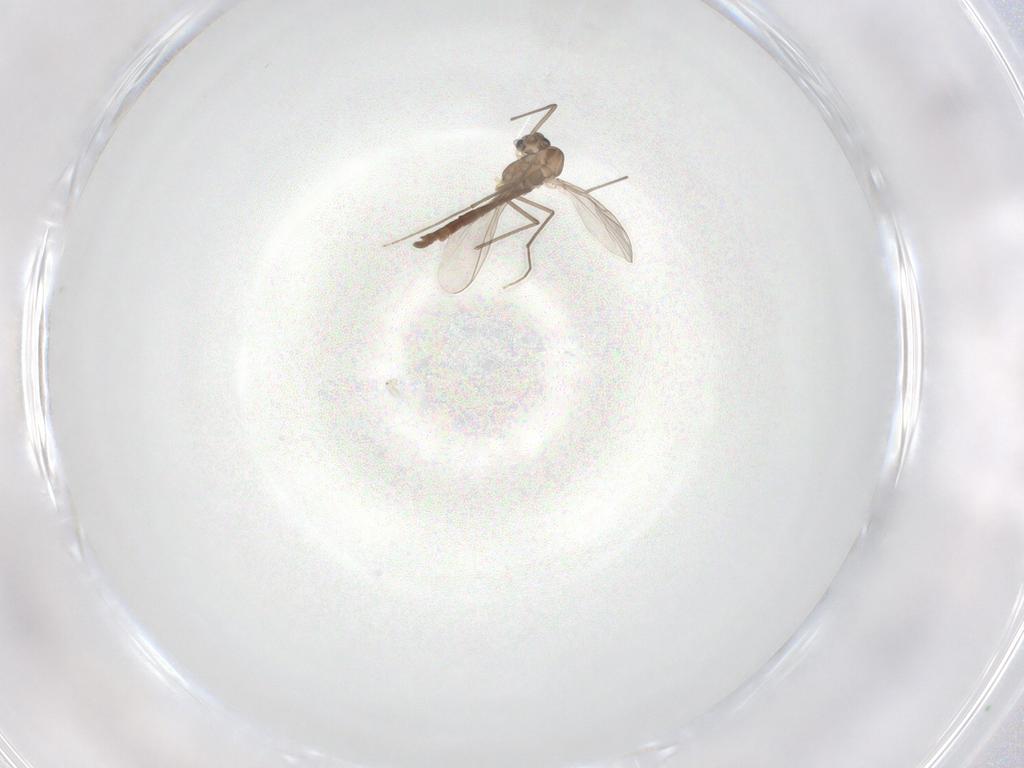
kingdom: Animalia
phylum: Arthropoda
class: Insecta
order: Diptera
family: Chironomidae
